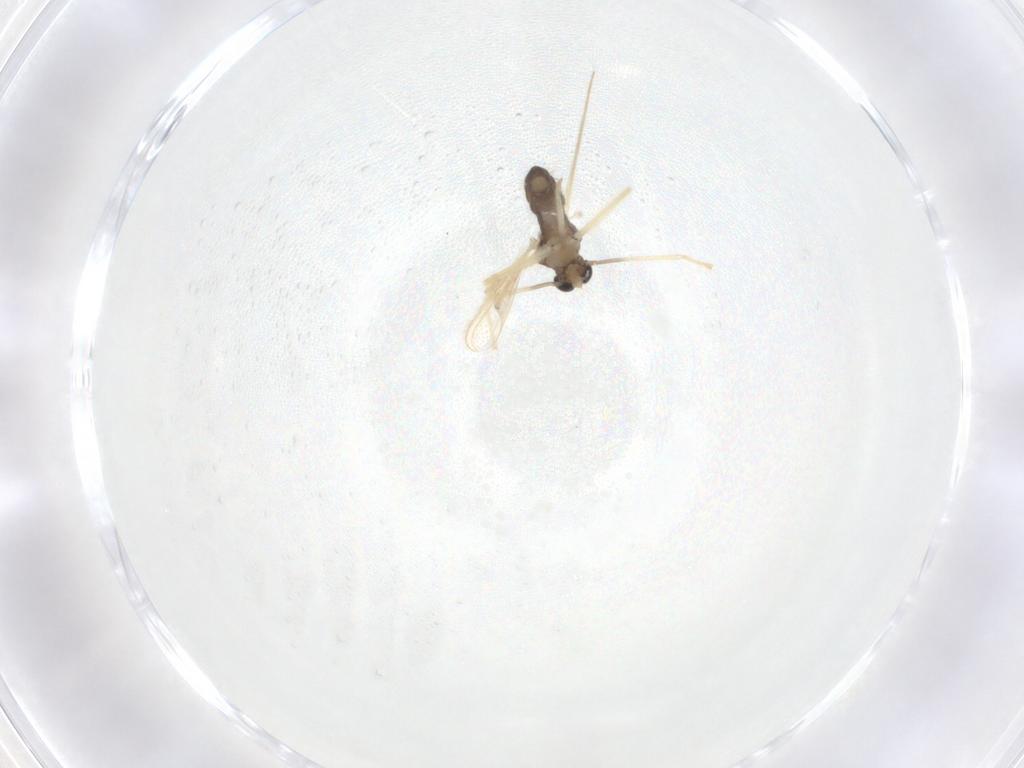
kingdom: Animalia
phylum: Arthropoda
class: Insecta
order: Diptera
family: Chironomidae
